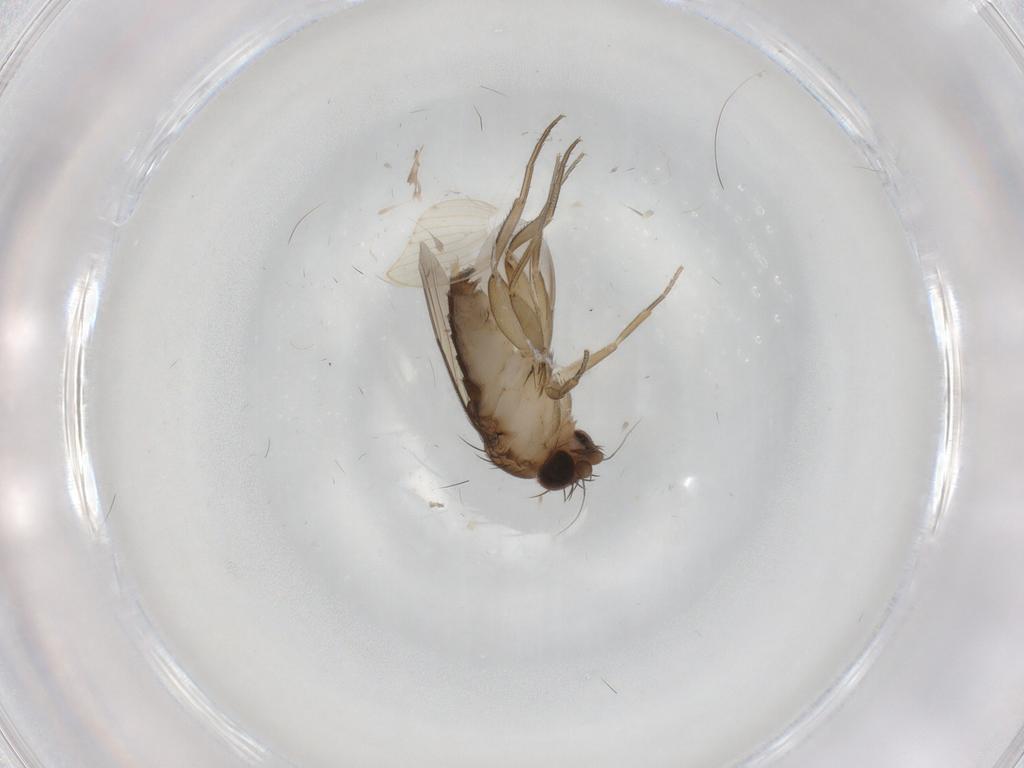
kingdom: Animalia
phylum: Arthropoda
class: Insecta
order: Diptera
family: Phoridae
